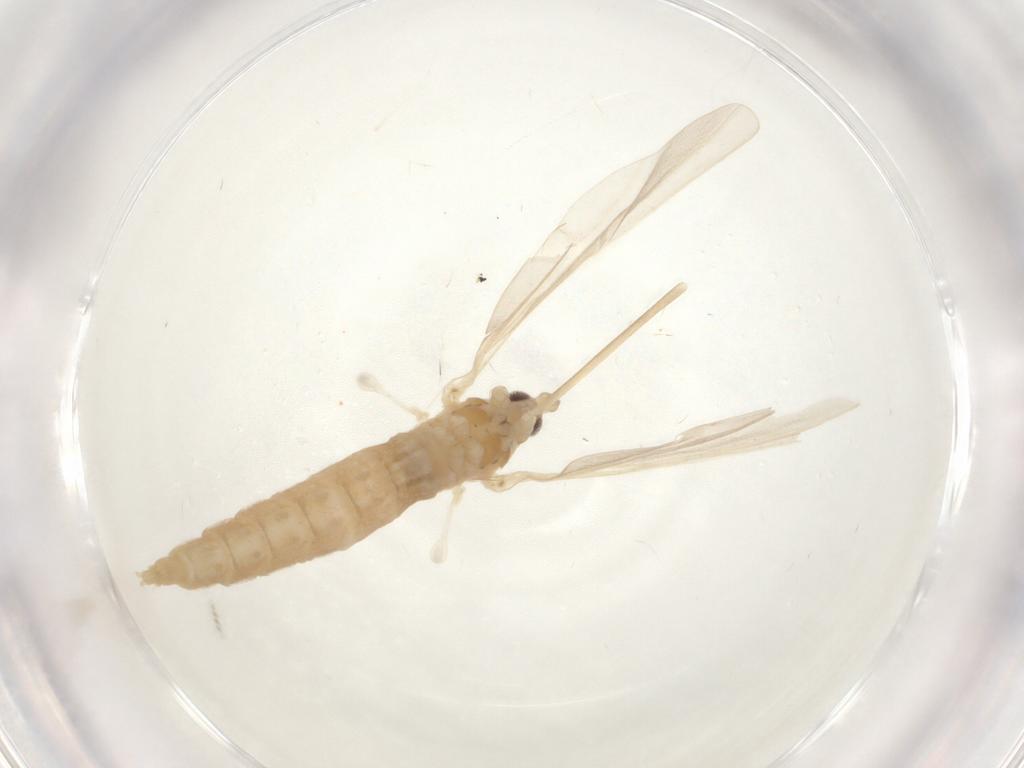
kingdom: Animalia
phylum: Arthropoda
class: Insecta
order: Diptera
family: Cecidomyiidae
